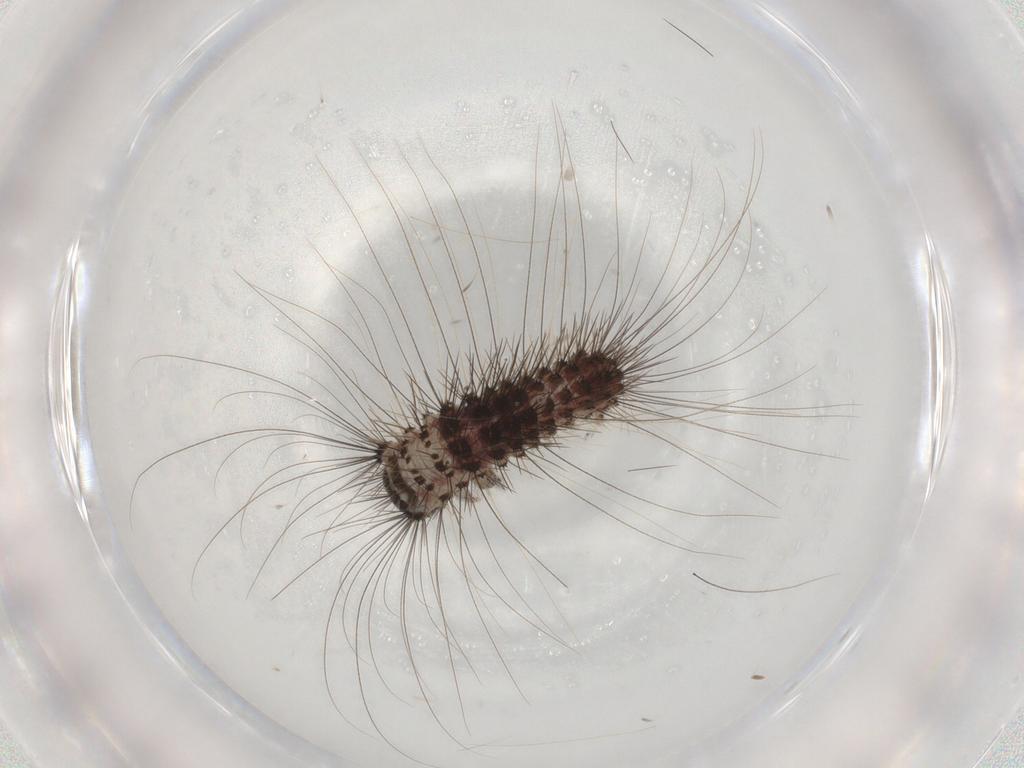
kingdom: Animalia
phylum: Arthropoda
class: Insecta
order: Lepidoptera
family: Scythrididae
